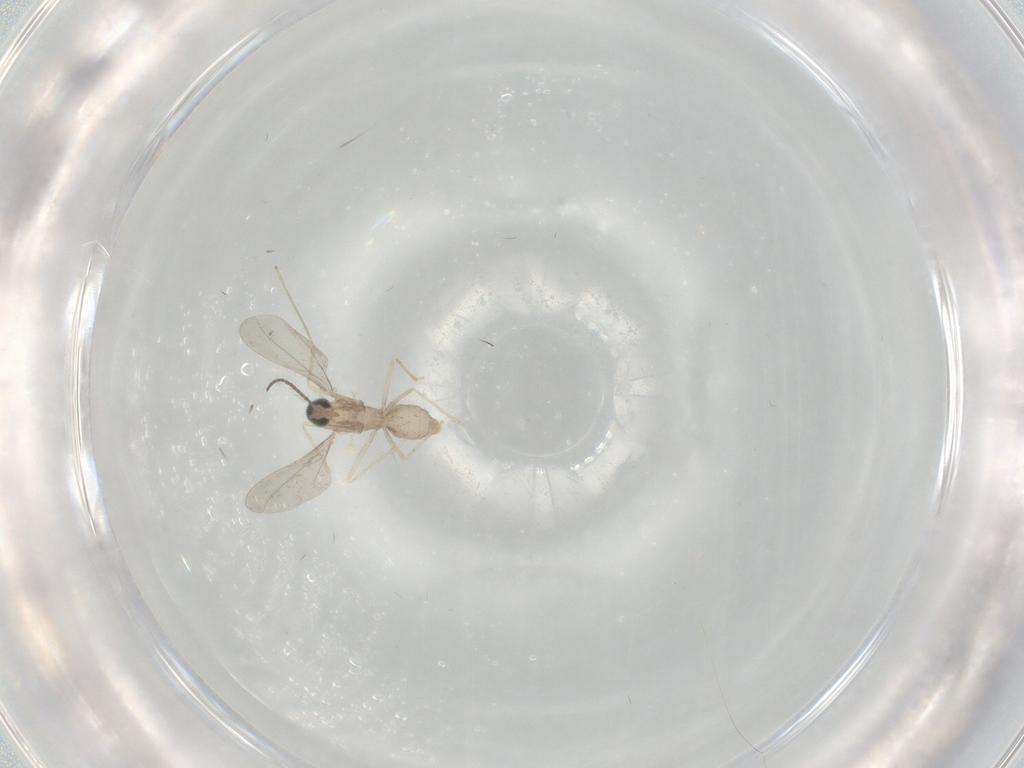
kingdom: Animalia
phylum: Arthropoda
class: Insecta
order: Diptera
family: Cecidomyiidae
